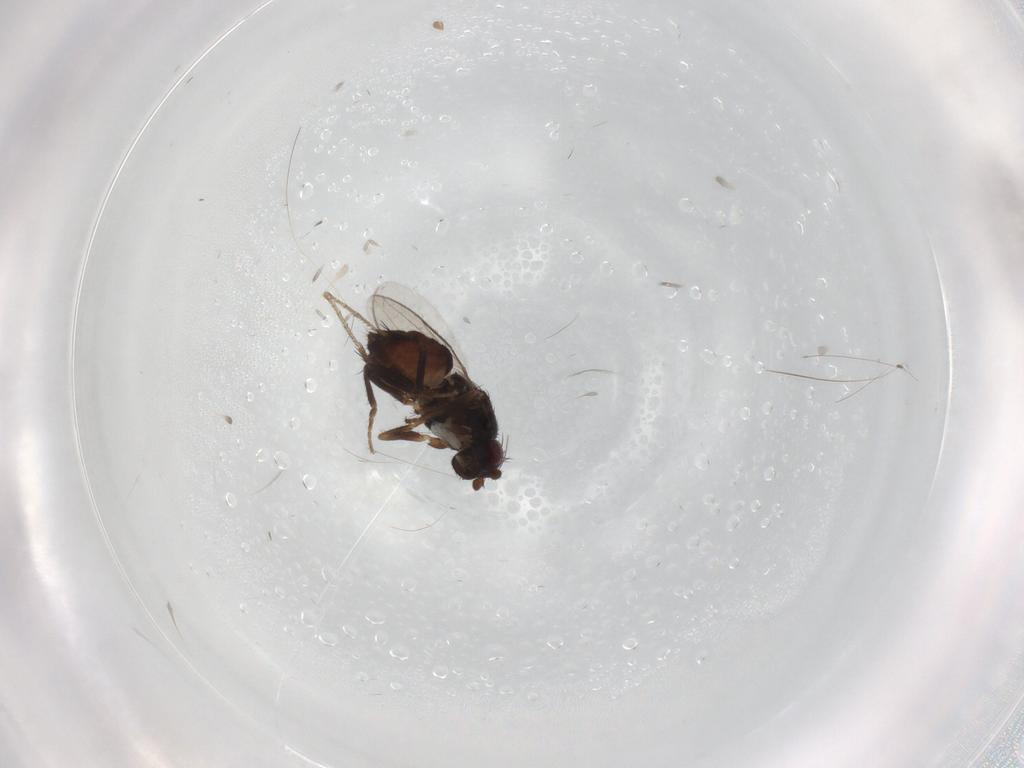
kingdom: Animalia
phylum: Arthropoda
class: Insecta
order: Diptera
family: Sphaeroceridae
